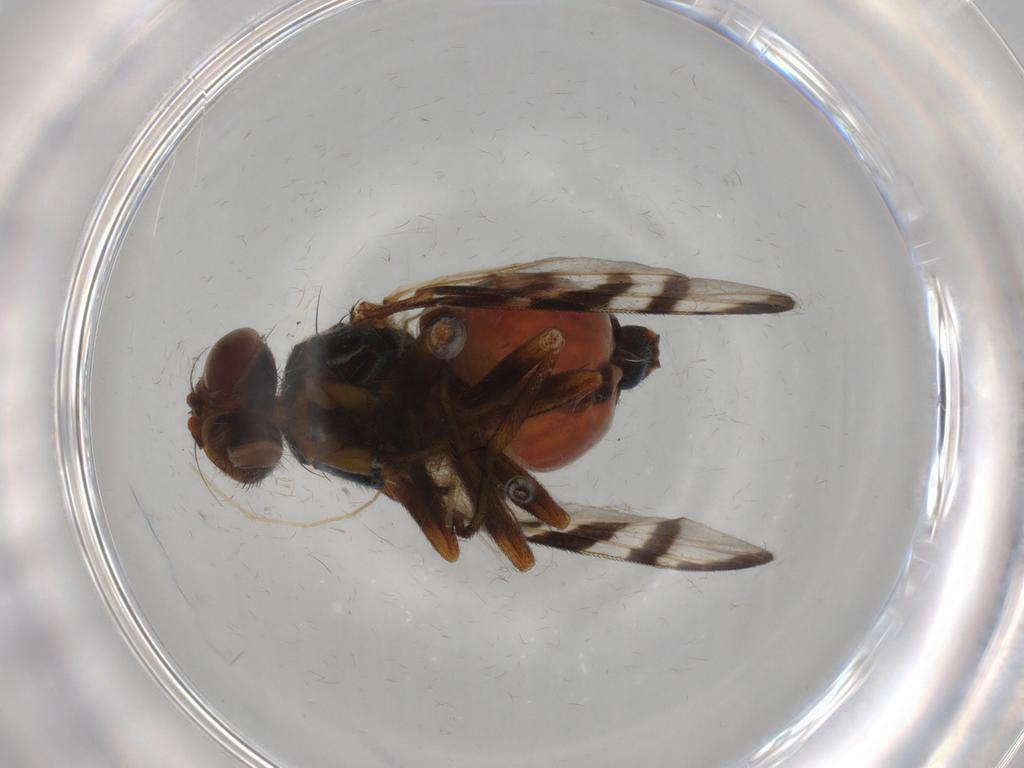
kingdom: Animalia
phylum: Arthropoda
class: Insecta
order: Diptera
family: Platystomatidae
